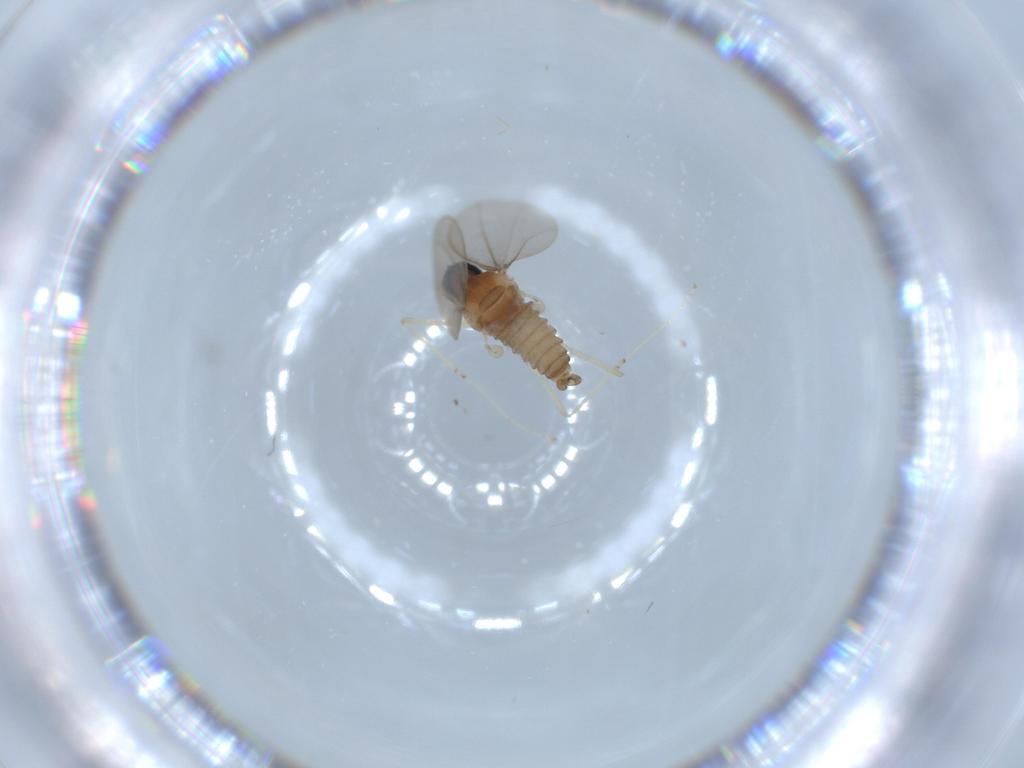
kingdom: Animalia
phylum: Arthropoda
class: Insecta
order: Diptera
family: Cecidomyiidae
